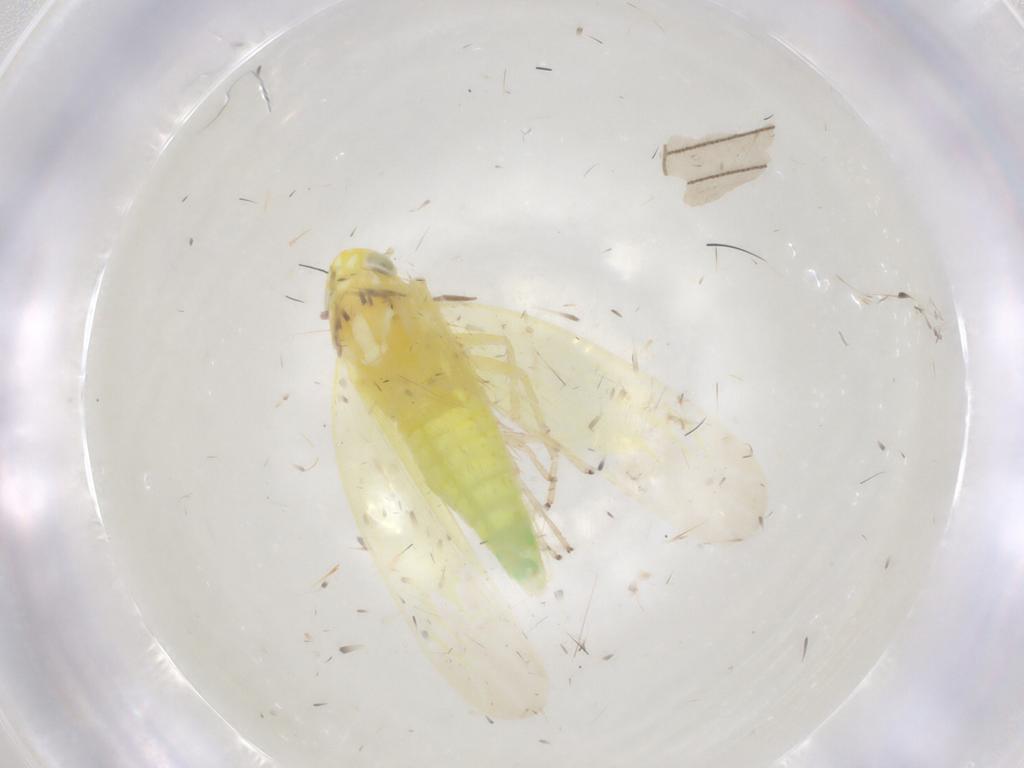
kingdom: Animalia
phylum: Arthropoda
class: Insecta
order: Hemiptera
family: Cicadellidae
